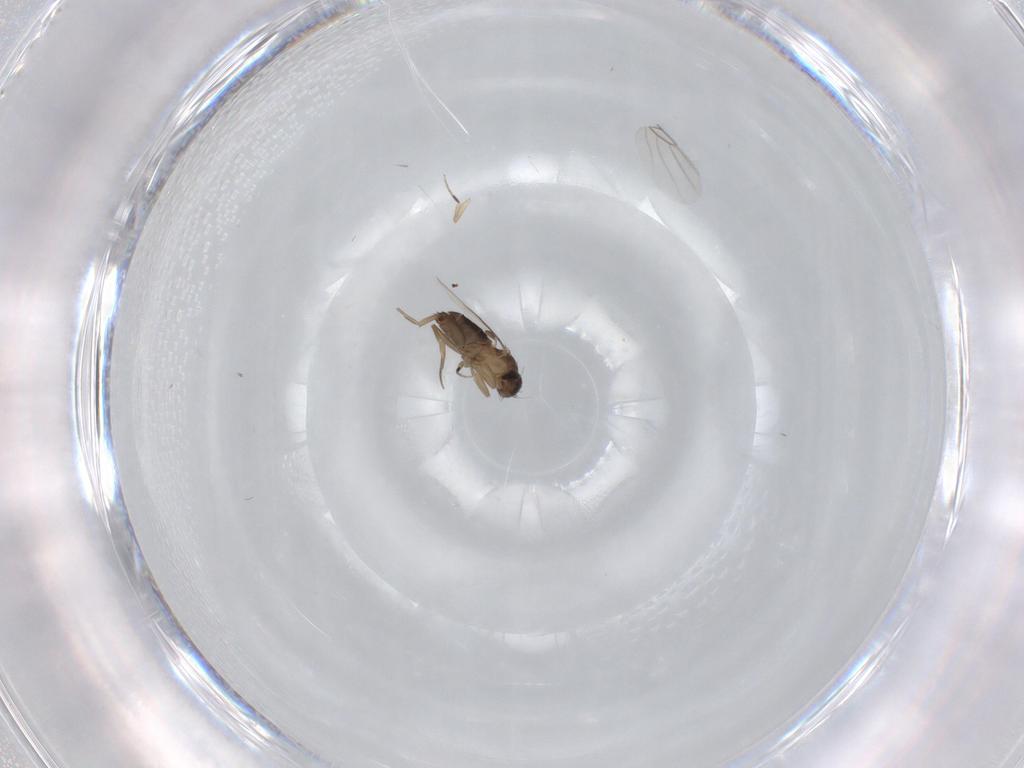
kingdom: Animalia
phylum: Arthropoda
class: Insecta
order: Diptera
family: Phoridae
